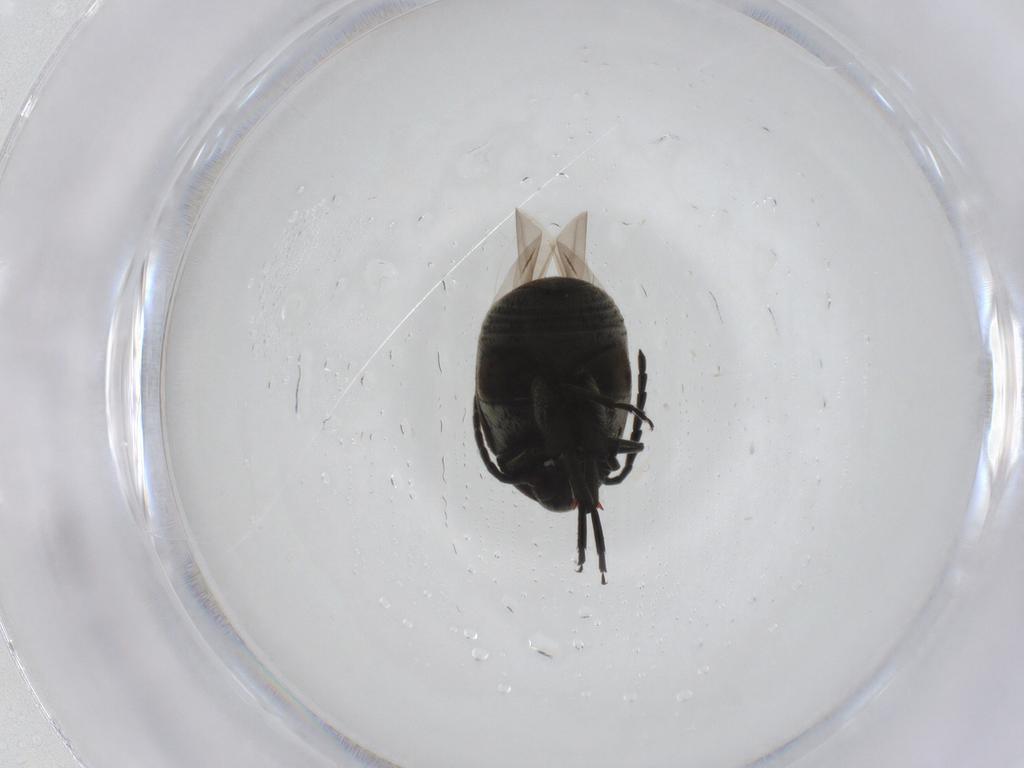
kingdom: Animalia
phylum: Arthropoda
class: Insecta
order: Coleoptera
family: Chrysomelidae
